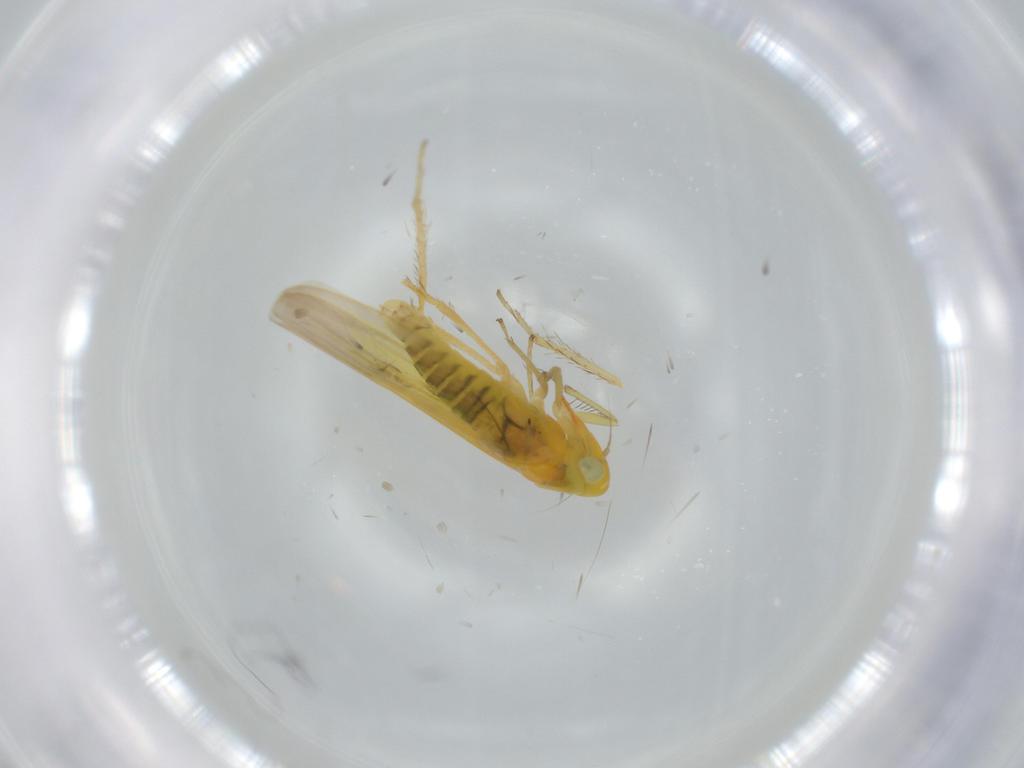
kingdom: Animalia
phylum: Arthropoda
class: Insecta
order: Hemiptera
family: Cicadellidae
